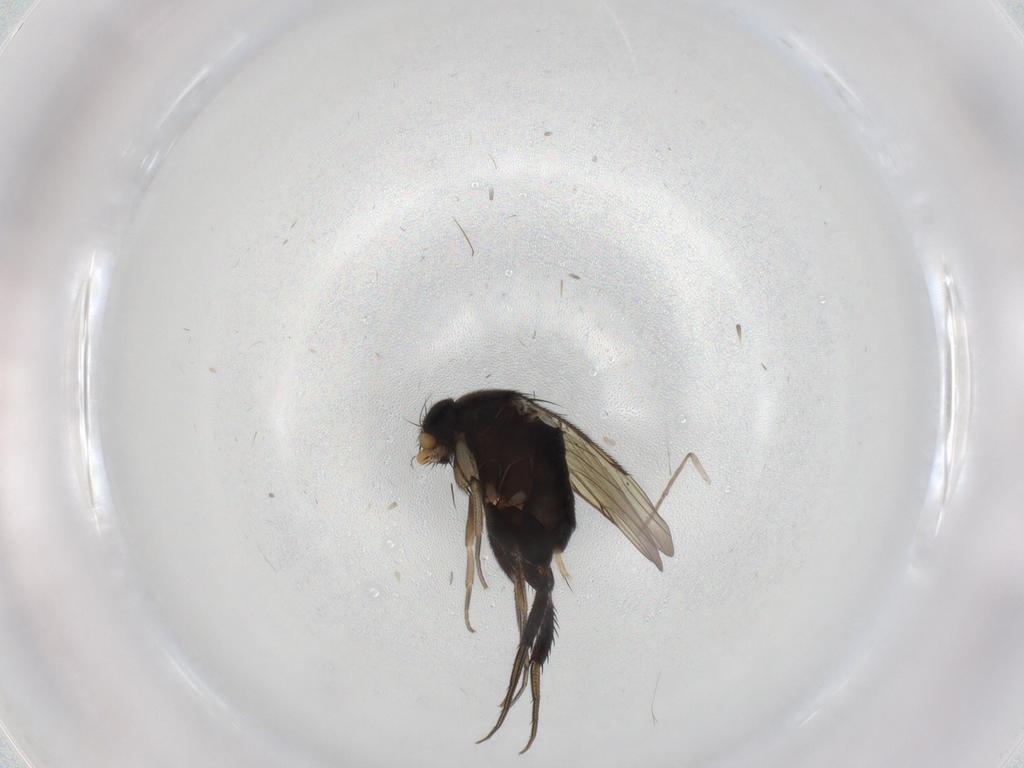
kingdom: Animalia
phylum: Arthropoda
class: Insecta
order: Diptera
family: Phoridae
